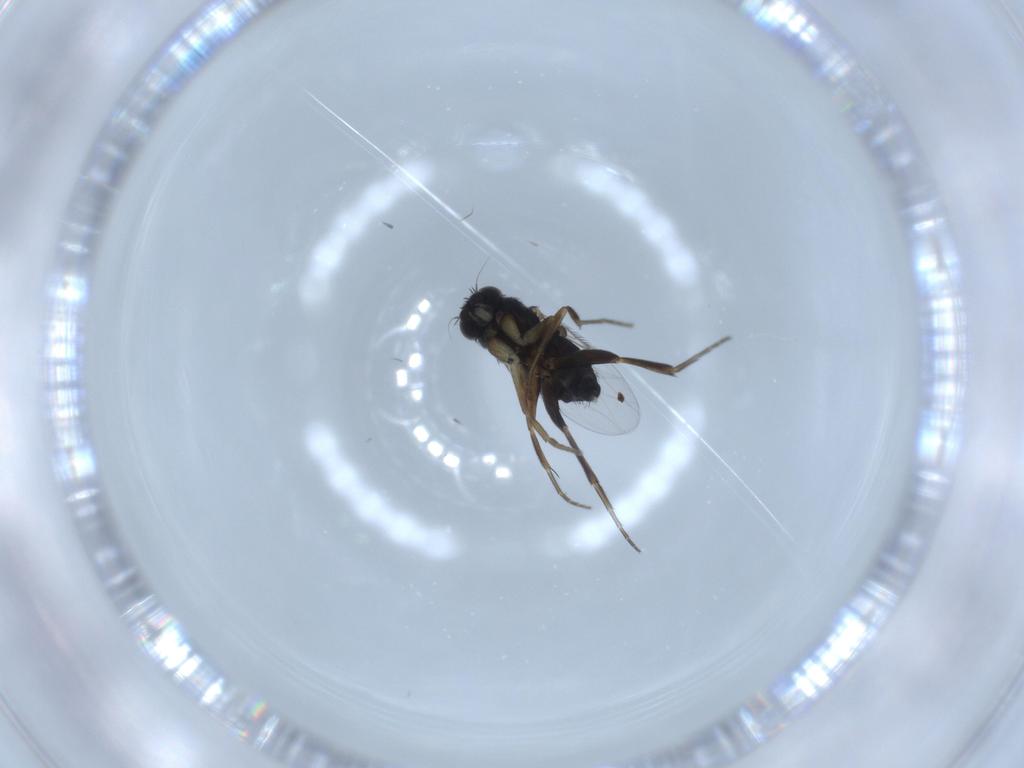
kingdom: Animalia
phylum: Arthropoda
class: Insecta
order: Diptera
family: Phoridae
